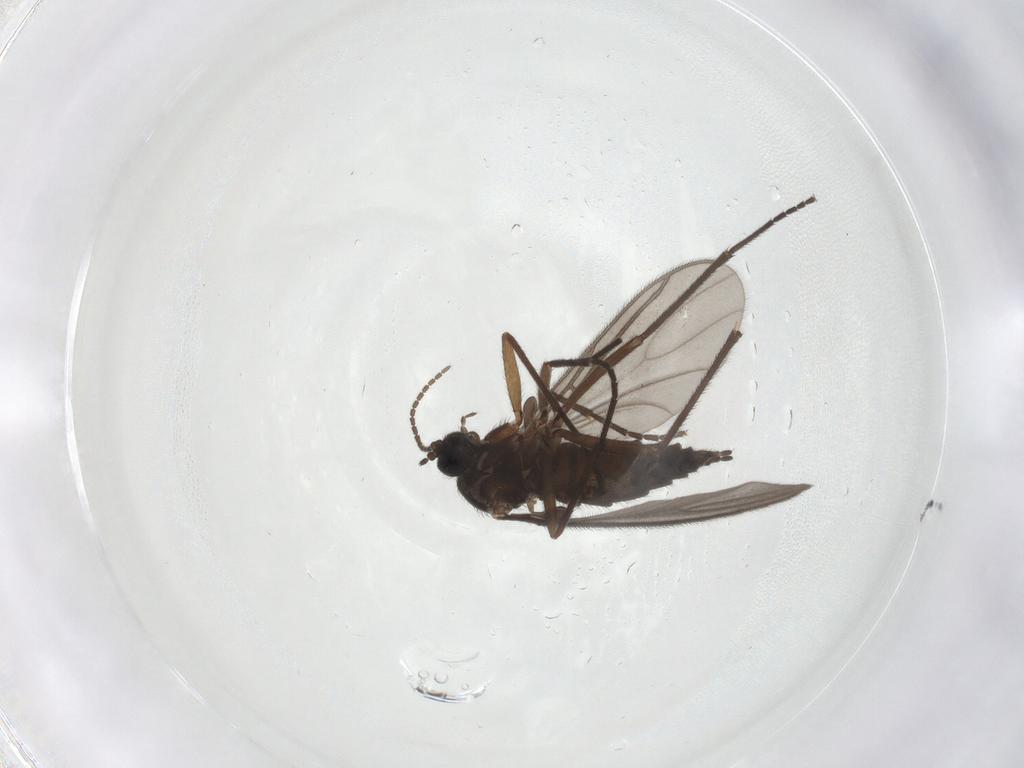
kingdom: Animalia
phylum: Arthropoda
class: Insecta
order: Diptera
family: Sciaridae
